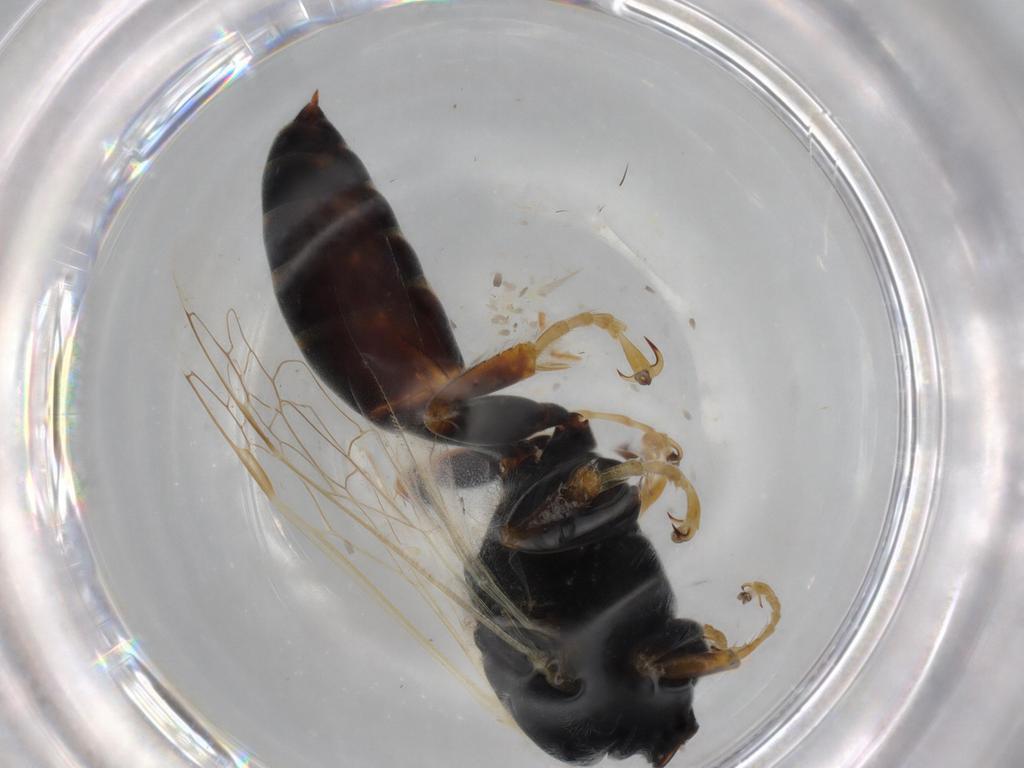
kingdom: Animalia
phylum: Arthropoda
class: Insecta
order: Hymenoptera
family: Crabronidae
